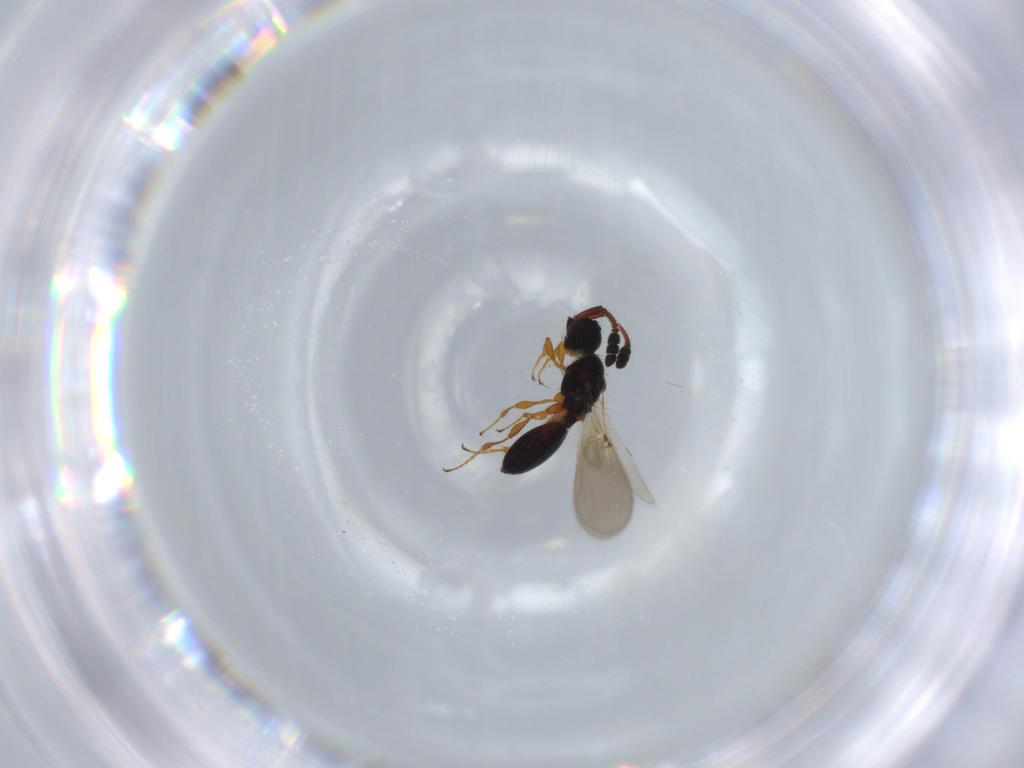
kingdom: Animalia
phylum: Arthropoda
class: Insecta
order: Hymenoptera
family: Diapriidae
